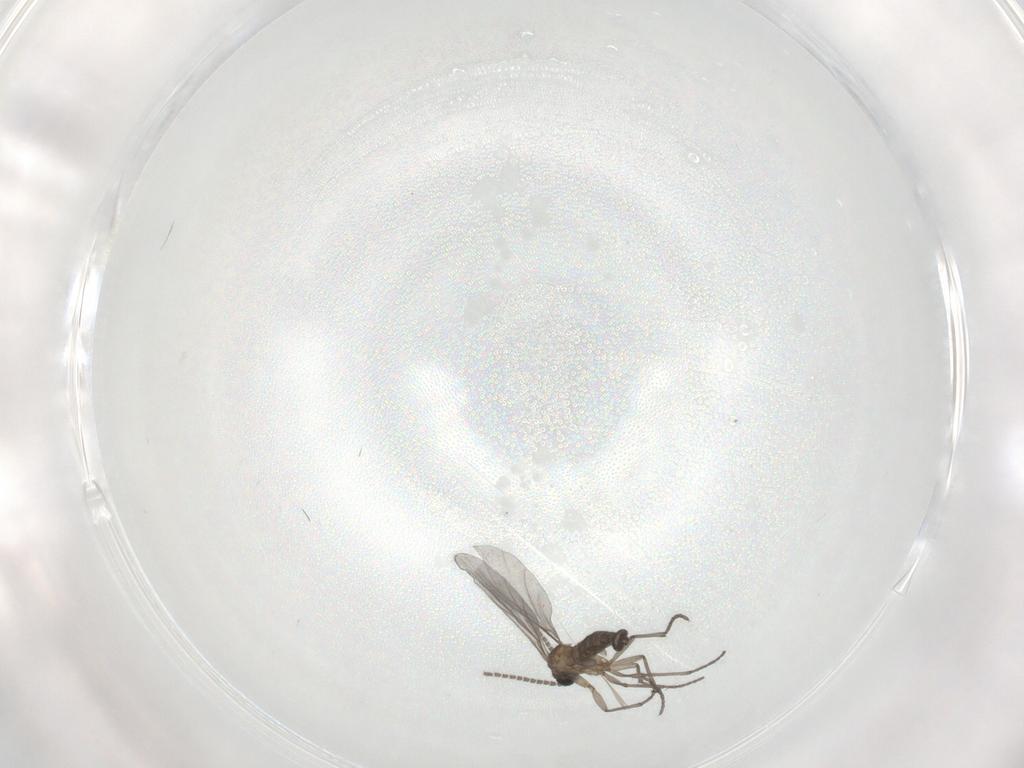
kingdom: Animalia
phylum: Arthropoda
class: Insecta
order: Diptera
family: Sciaridae
